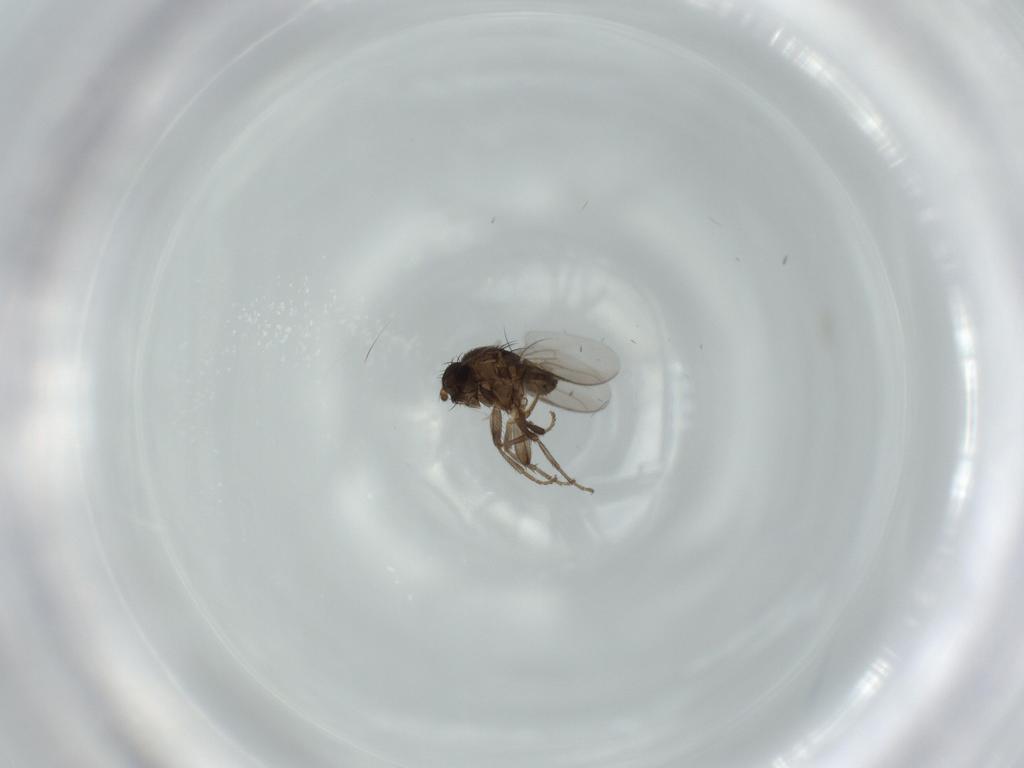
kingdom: Animalia
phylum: Arthropoda
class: Insecta
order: Diptera
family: Sphaeroceridae
